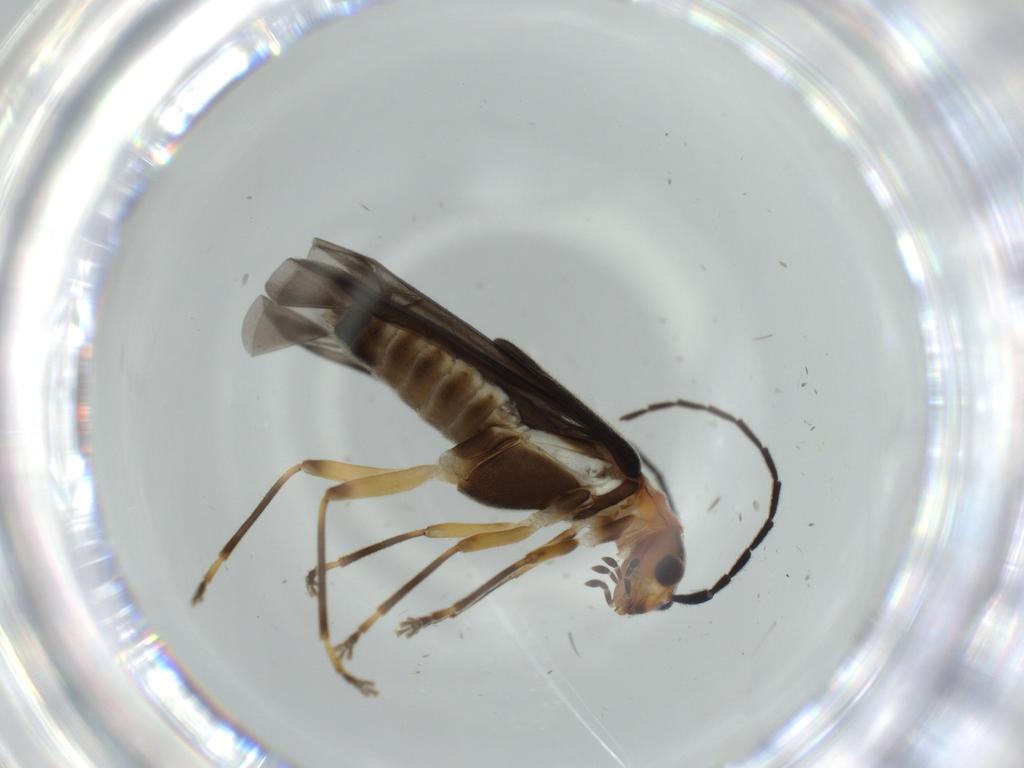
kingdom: Animalia
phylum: Arthropoda
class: Insecta
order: Coleoptera
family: Cantharidae
